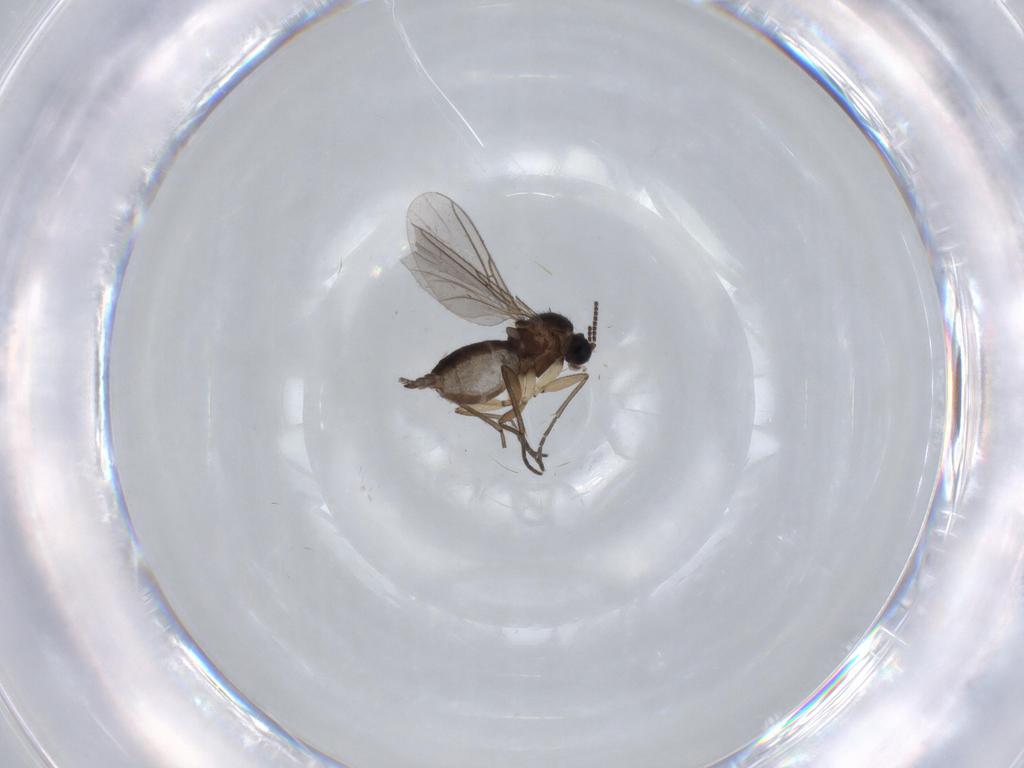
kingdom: Animalia
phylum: Arthropoda
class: Insecta
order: Diptera
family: Sciaridae
